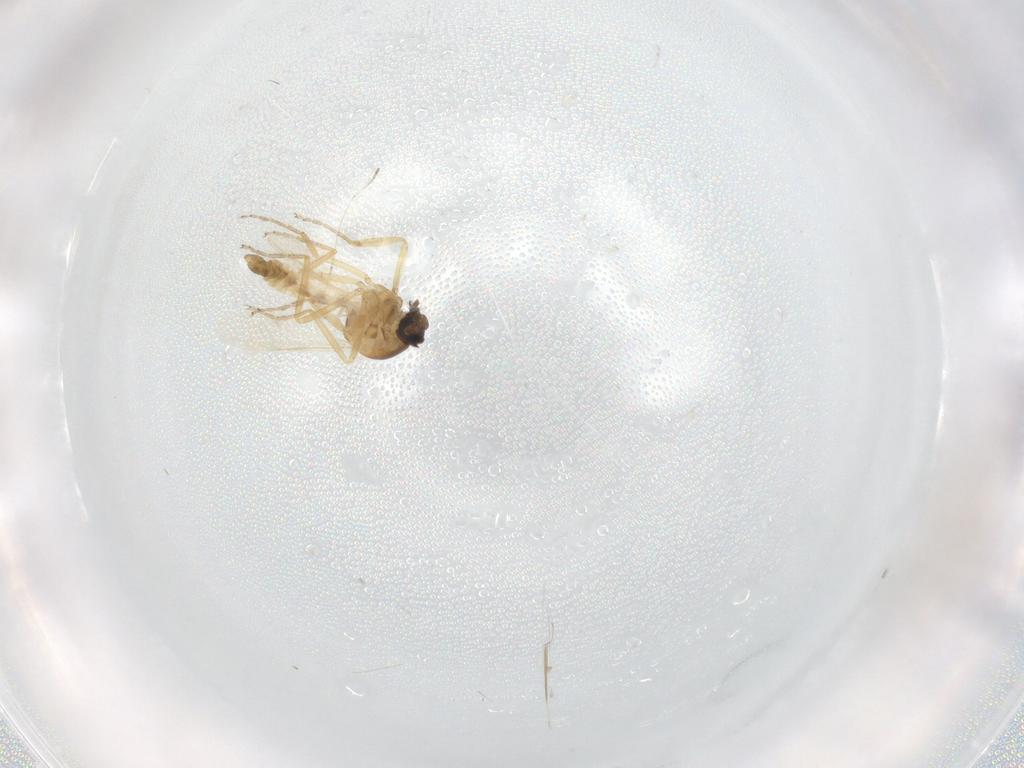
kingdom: Animalia
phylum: Arthropoda
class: Insecta
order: Diptera
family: Ceratopogonidae
